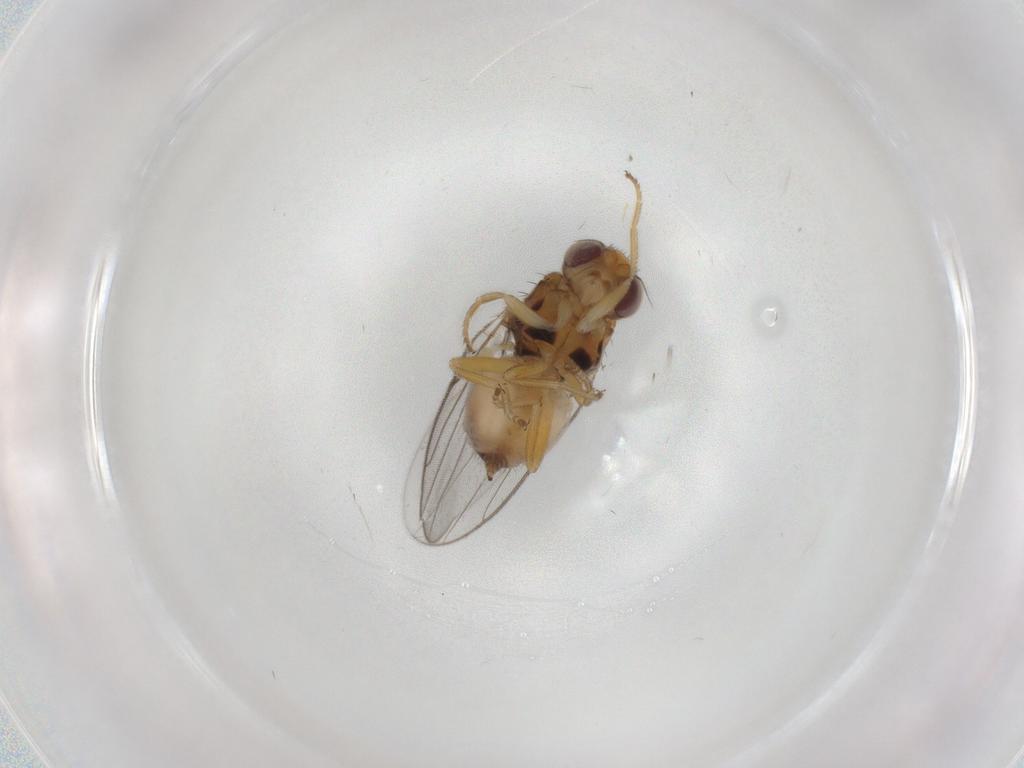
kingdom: Animalia
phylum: Arthropoda
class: Insecta
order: Diptera
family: Chloropidae
